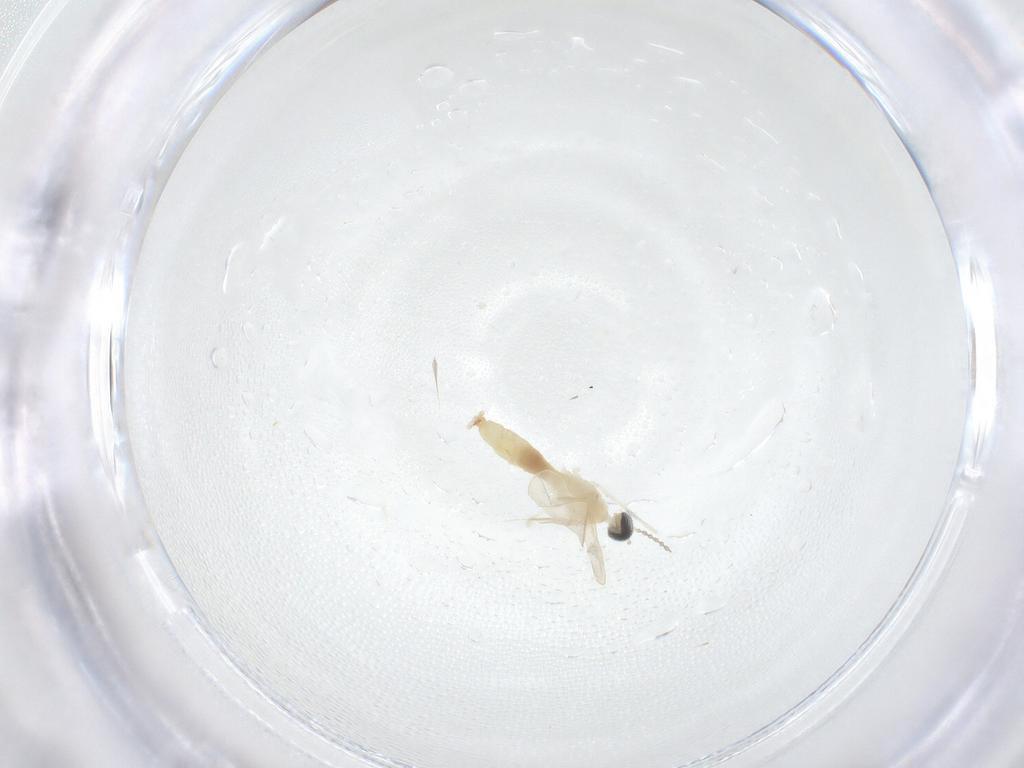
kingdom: Animalia
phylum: Arthropoda
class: Insecta
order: Diptera
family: Cecidomyiidae
